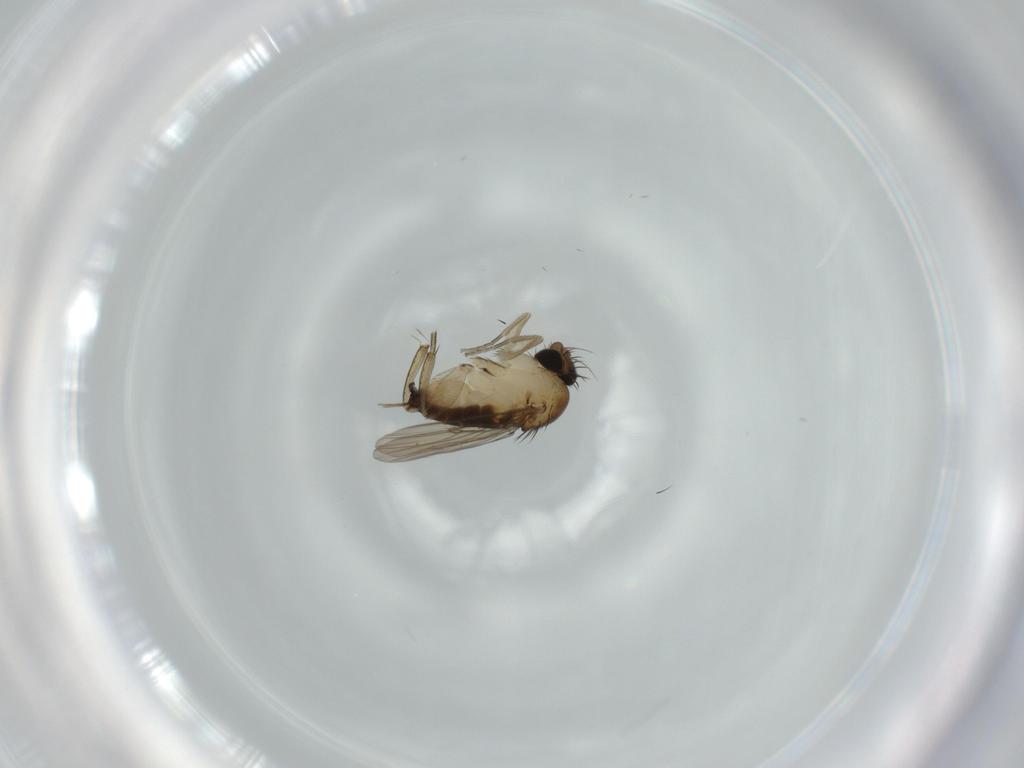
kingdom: Animalia
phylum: Arthropoda
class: Insecta
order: Diptera
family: Phoridae
